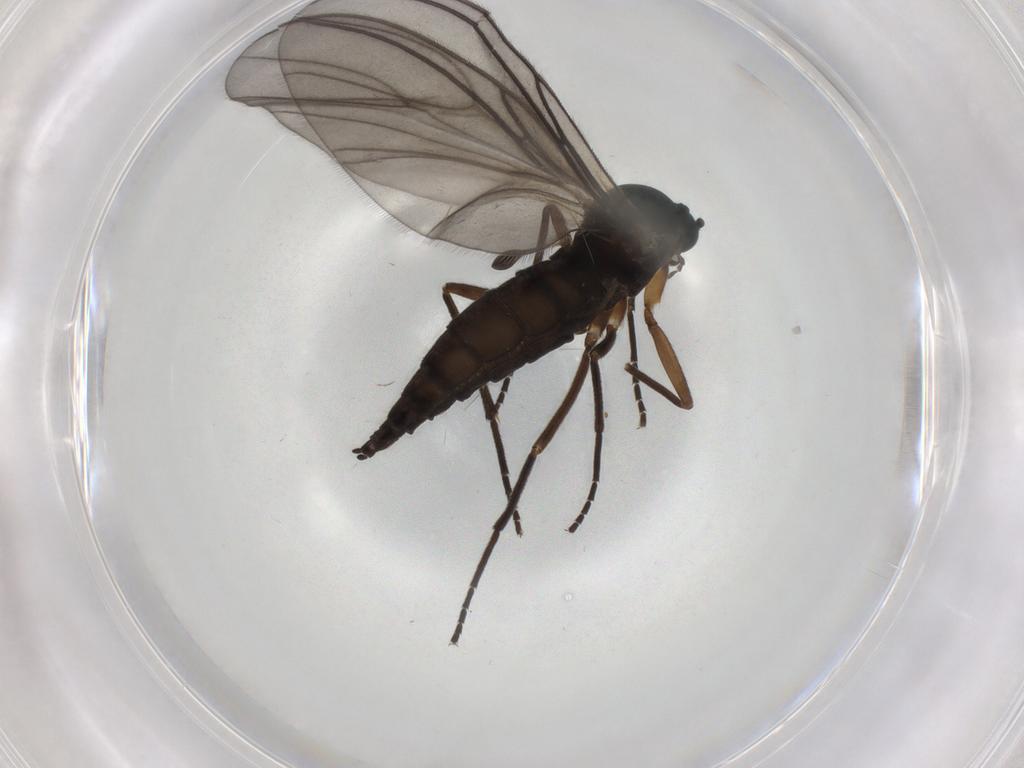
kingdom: Animalia
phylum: Arthropoda
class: Insecta
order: Diptera
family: Sciaridae
